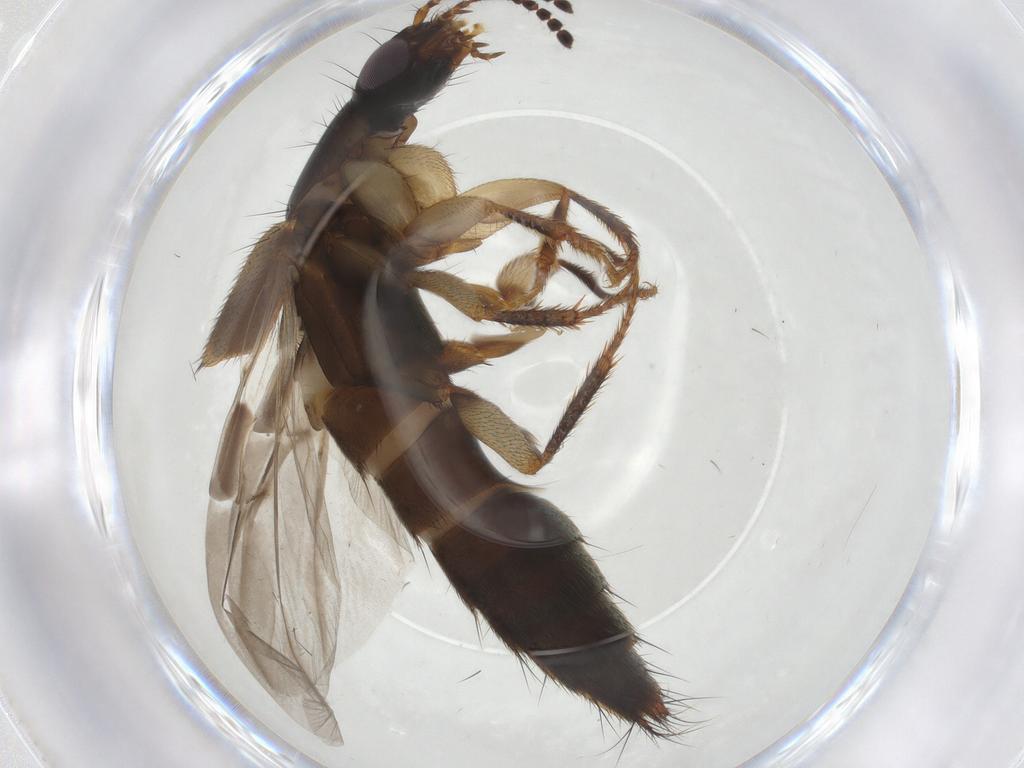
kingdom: Animalia
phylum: Arthropoda
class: Insecta
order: Coleoptera
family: Staphylinidae
